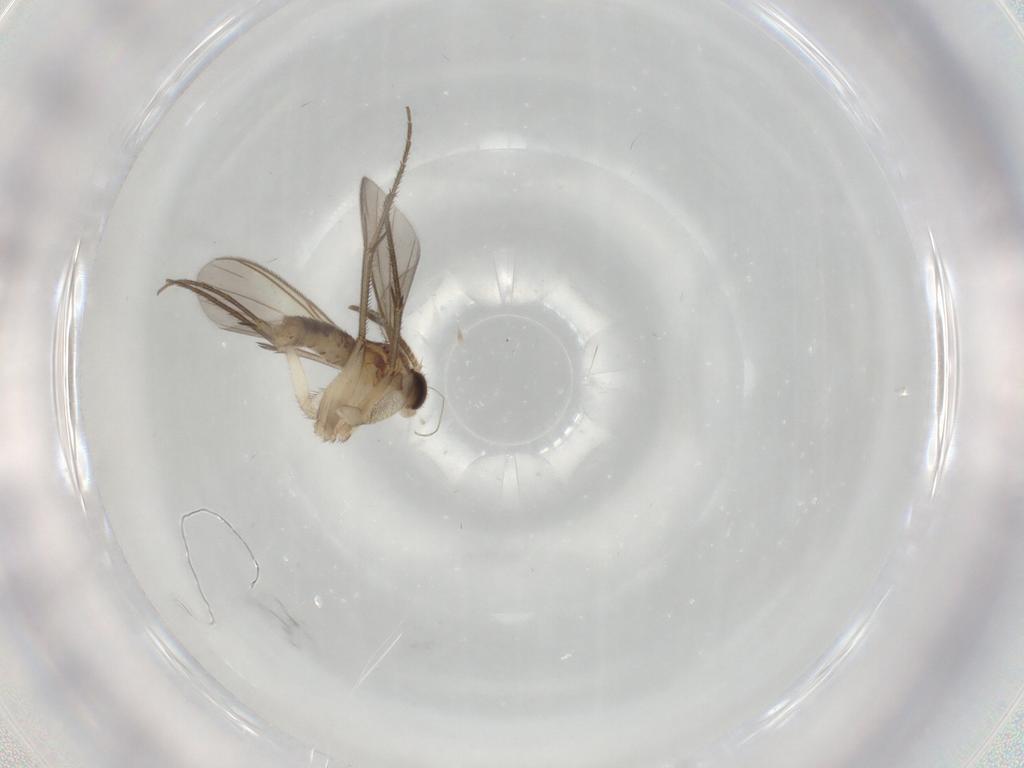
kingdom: Animalia
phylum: Arthropoda
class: Insecta
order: Diptera
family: Mycetophilidae
